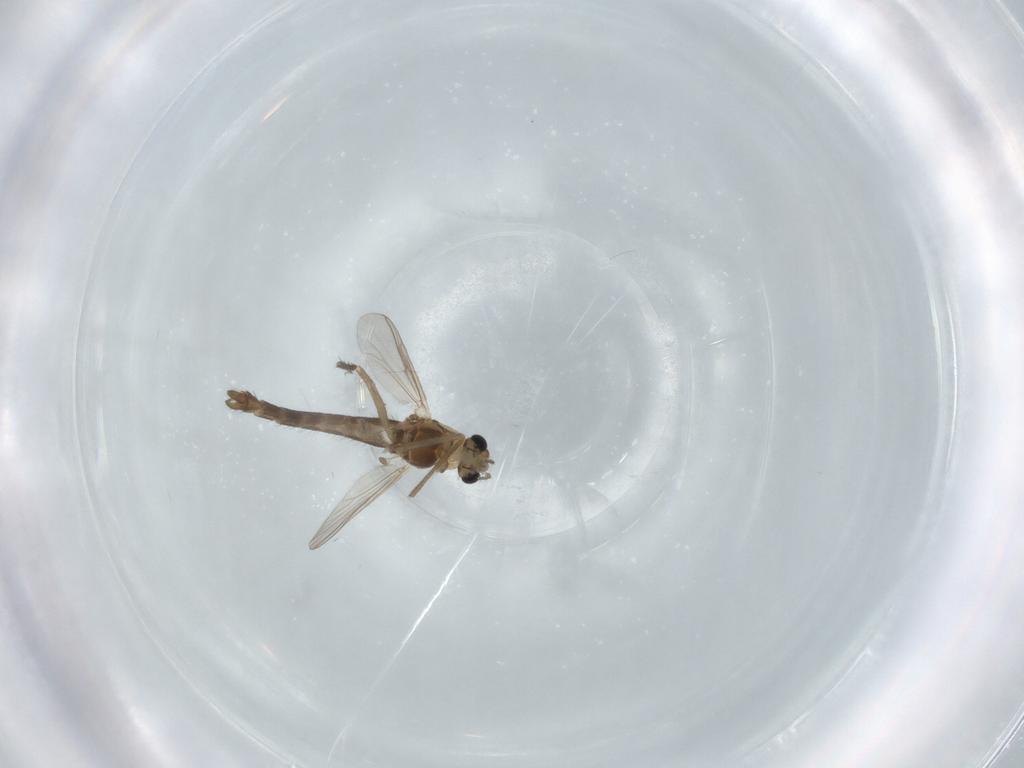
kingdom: Animalia
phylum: Arthropoda
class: Insecta
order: Diptera
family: Chironomidae
